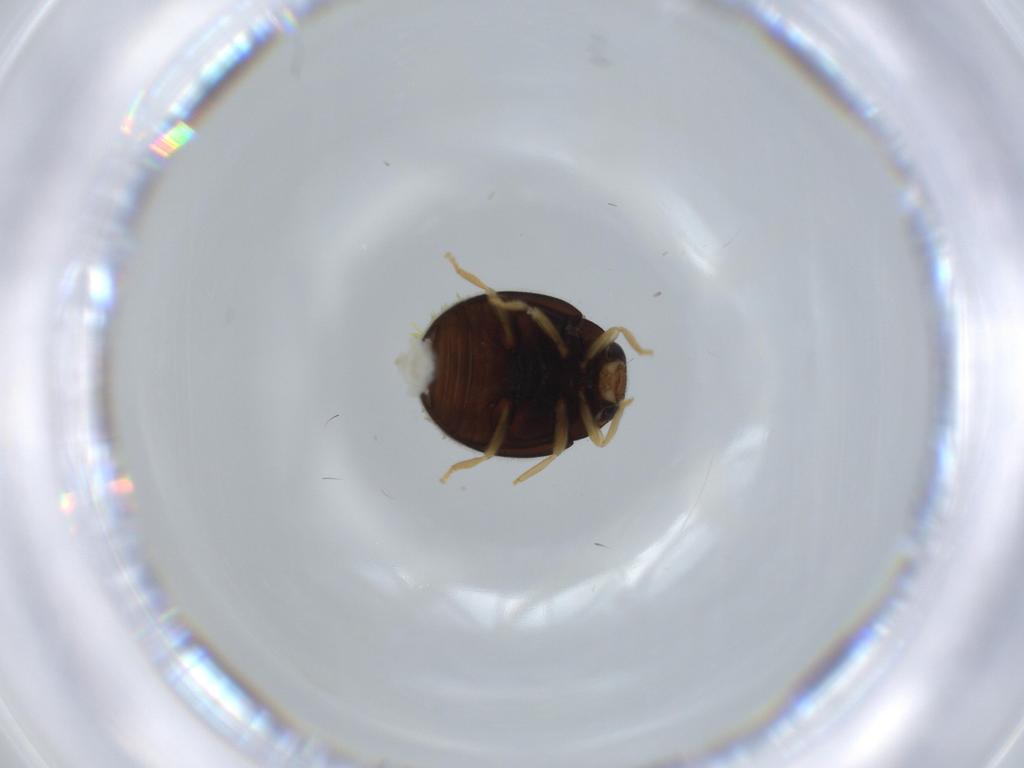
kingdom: Animalia
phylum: Arthropoda
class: Insecta
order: Coleoptera
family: Coccinellidae
